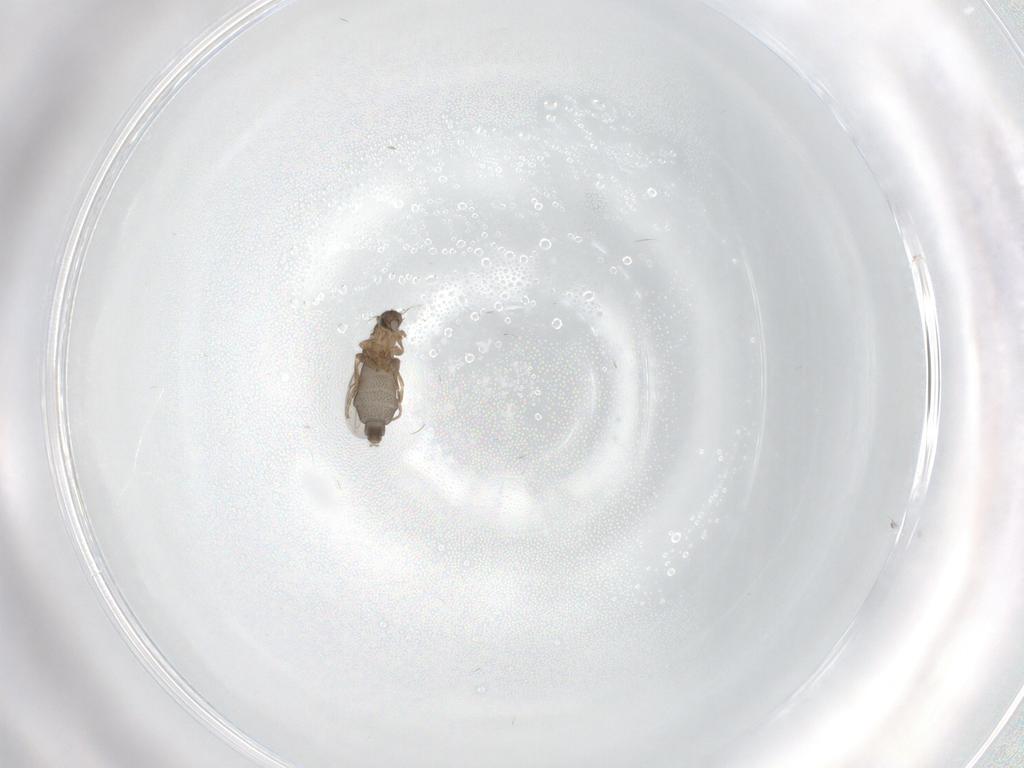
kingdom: Animalia
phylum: Arthropoda
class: Insecta
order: Diptera
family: Phoridae
